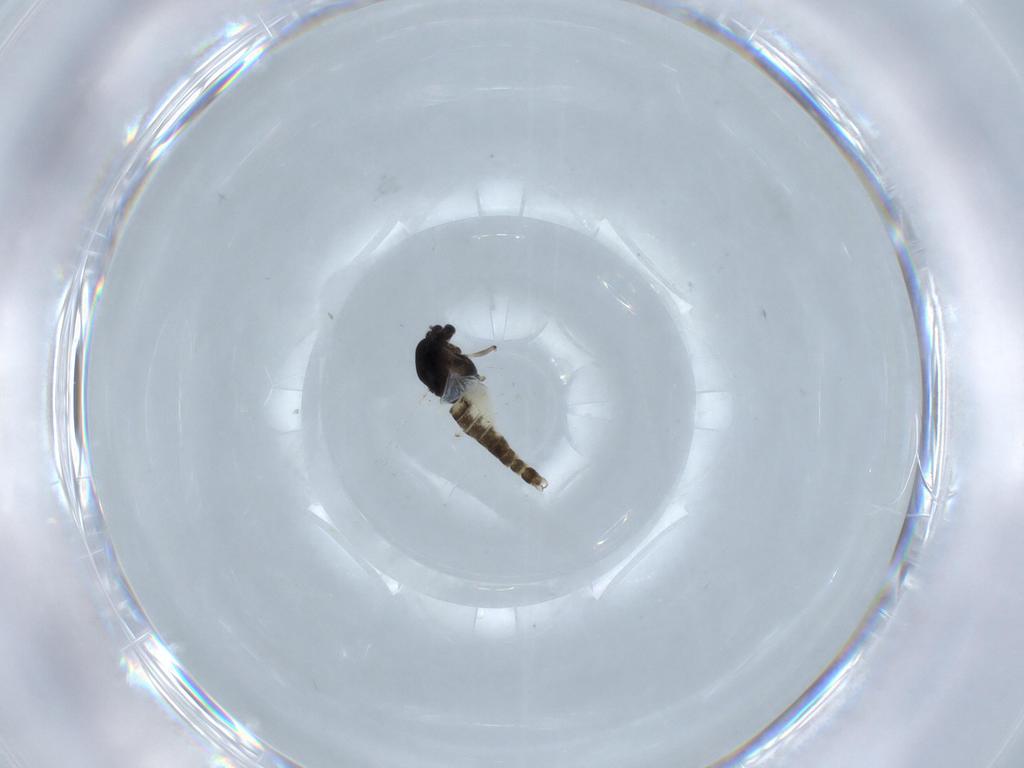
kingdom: Animalia
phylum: Arthropoda
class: Insecta
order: Diptera
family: Chironomidae
